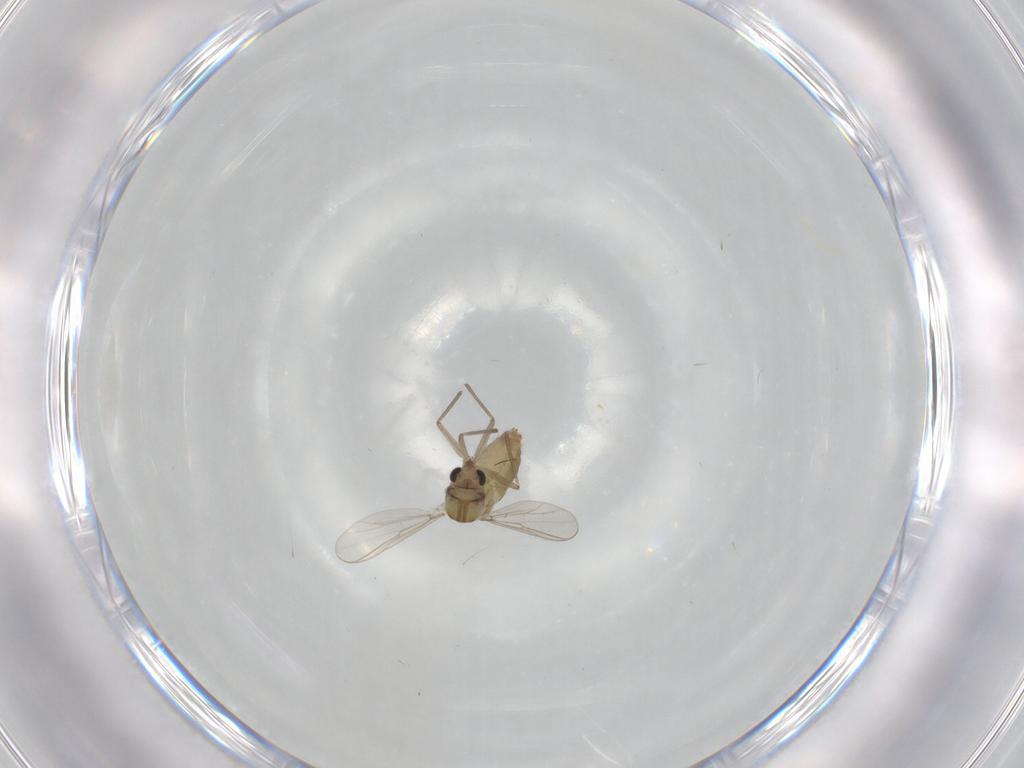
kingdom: Animalia
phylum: Arthropoda
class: Insecta
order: Diptera
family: Chironomidae
